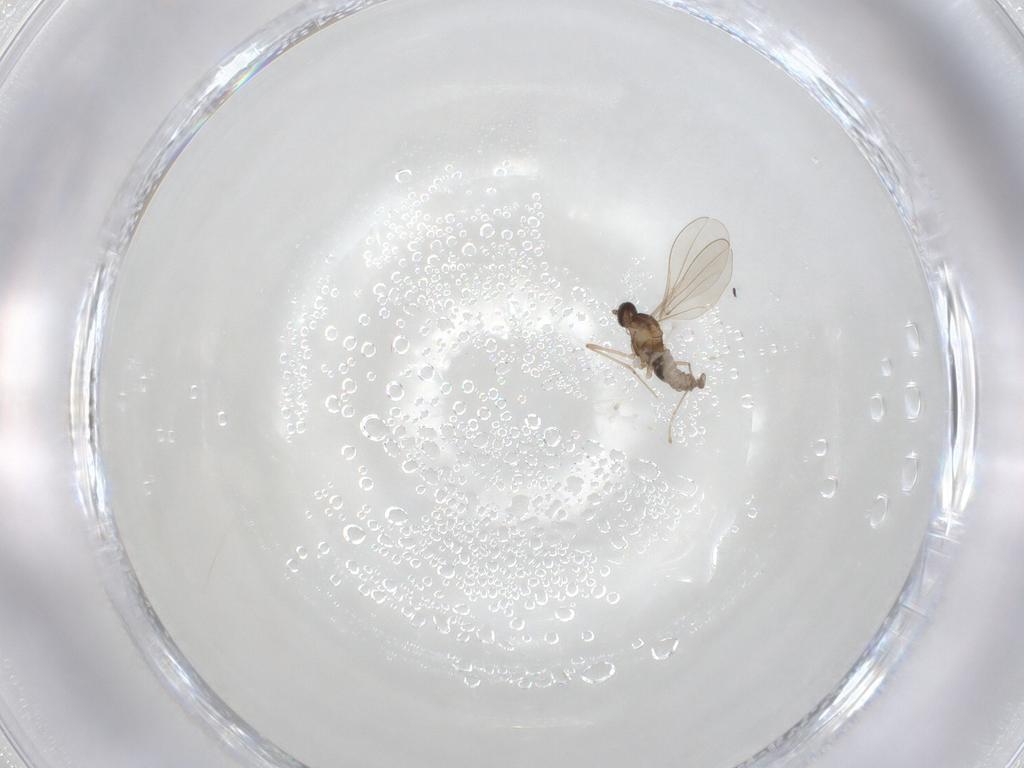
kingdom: Animalia
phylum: Arthropoda
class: Insecta
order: Diptera
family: Cecidomyiidae
